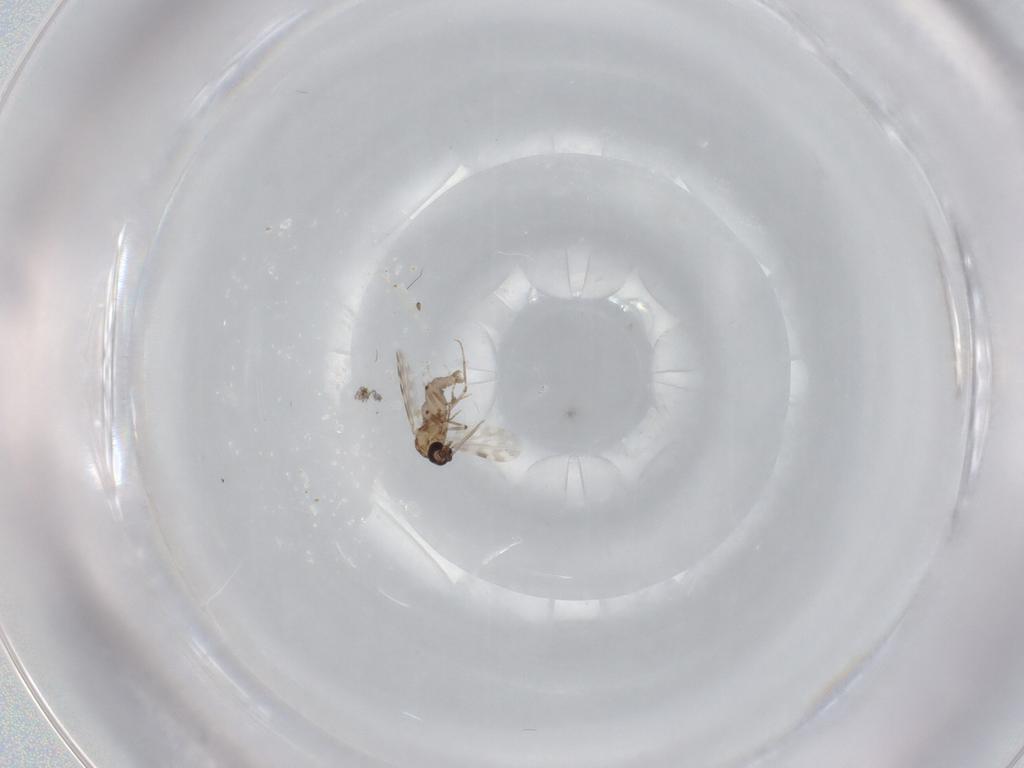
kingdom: Animalia
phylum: Arthropoda
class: Insecta
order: Diptera
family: Ceratopogonidae
